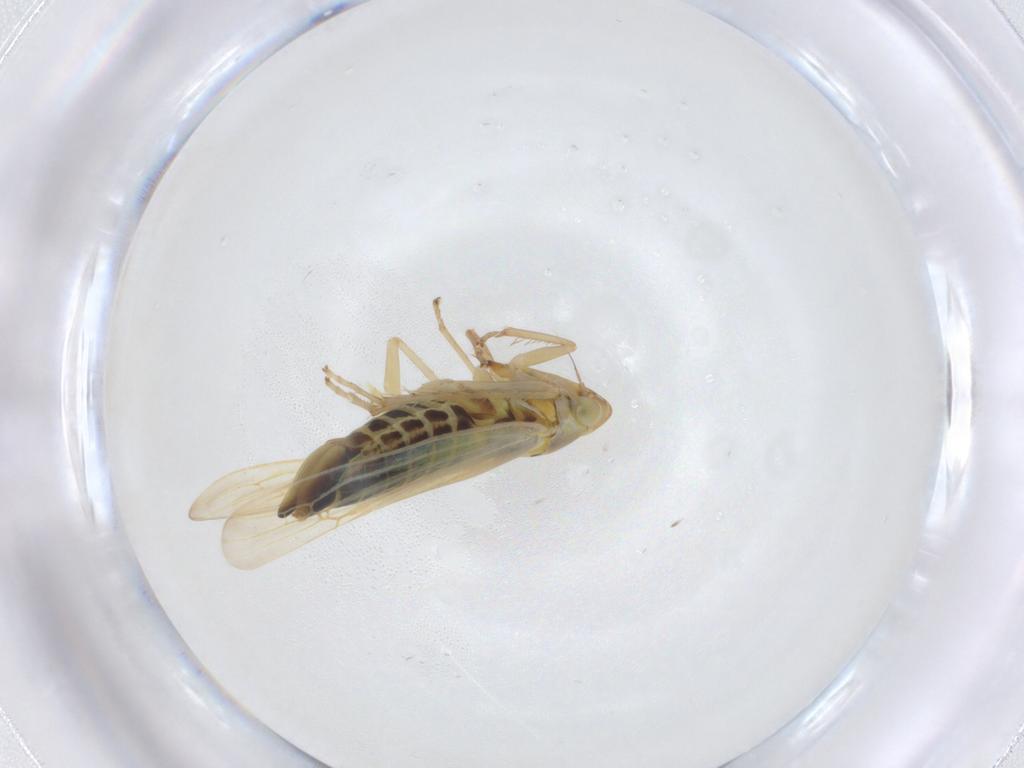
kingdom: Animalia
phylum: Arthropoda
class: Insecta
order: Hemiptera
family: Cicadellidae
